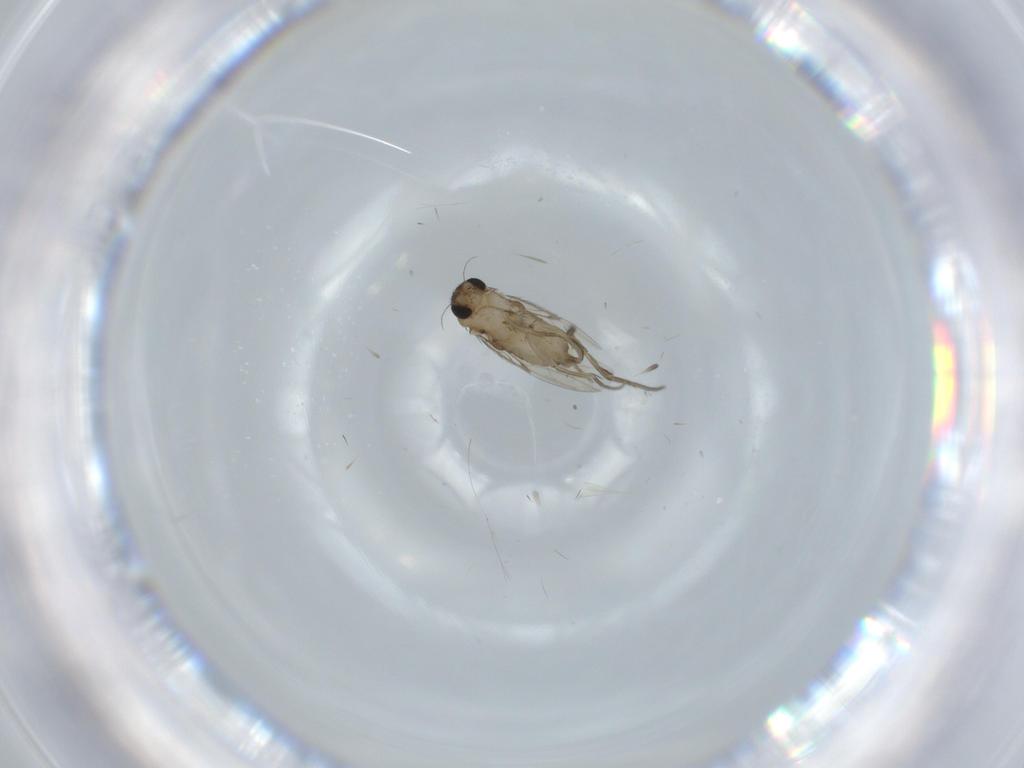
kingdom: Animalia
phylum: Arthropoda
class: Insecta
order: Diptera
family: Phoridae
